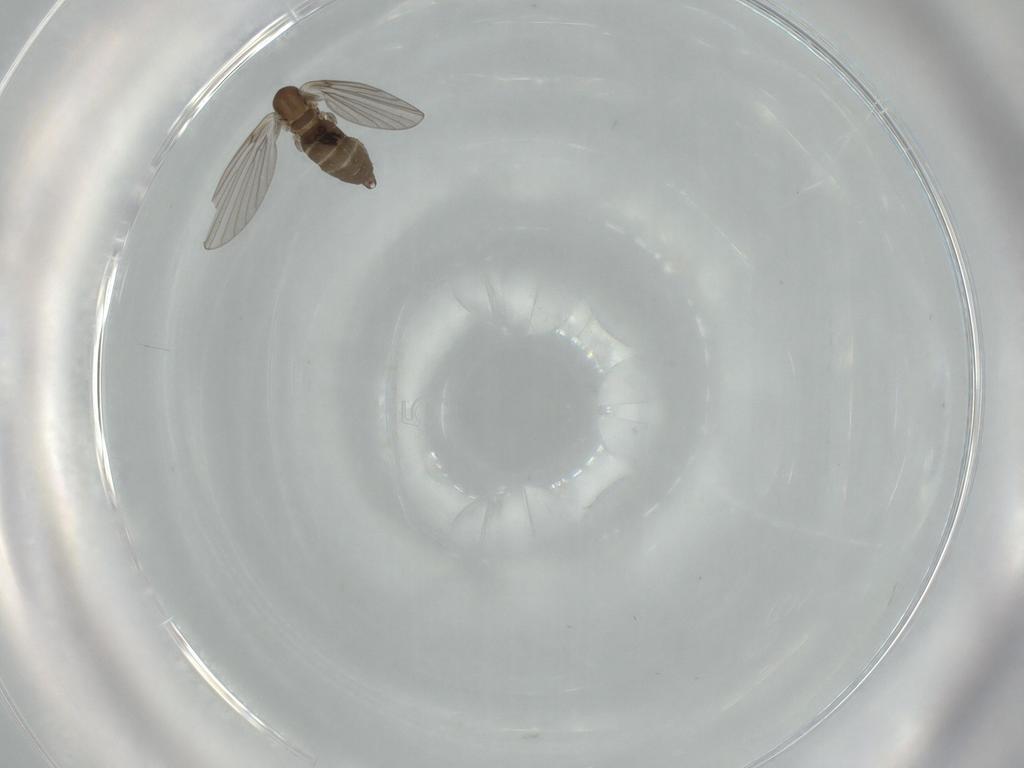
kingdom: Animalia
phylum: Arthropoda
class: Insecta
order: Diptera
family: Psychodidae
